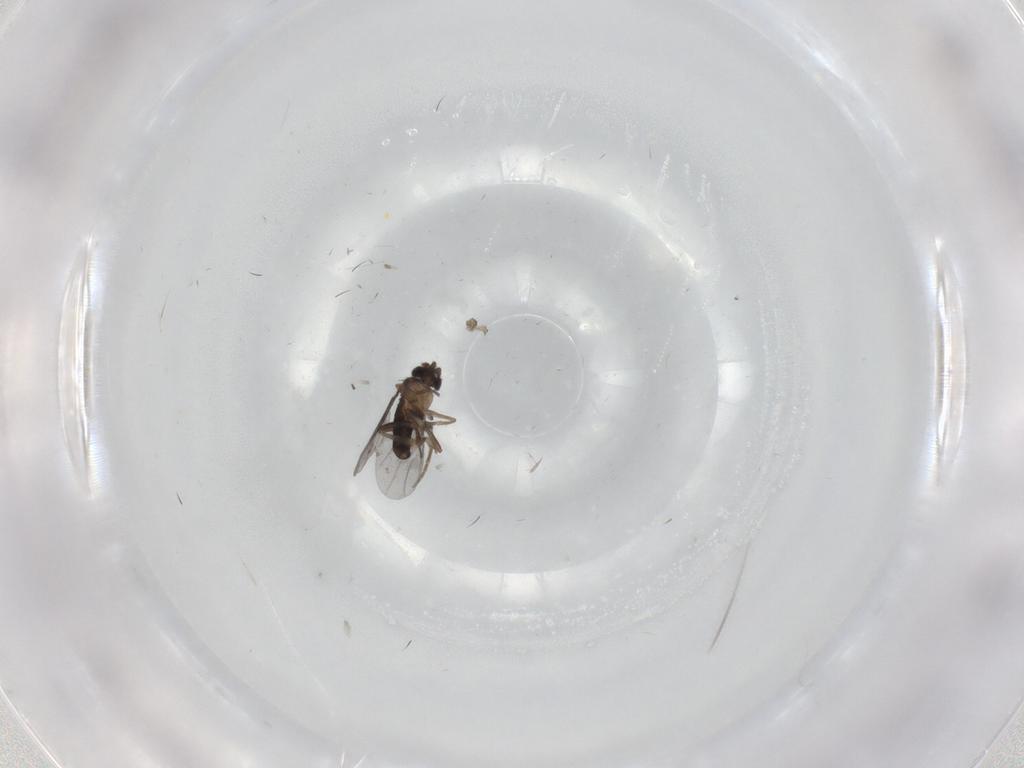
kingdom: Animalia
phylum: Arthropoda
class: Insecta
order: Diptera
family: Cecidomyiidae
